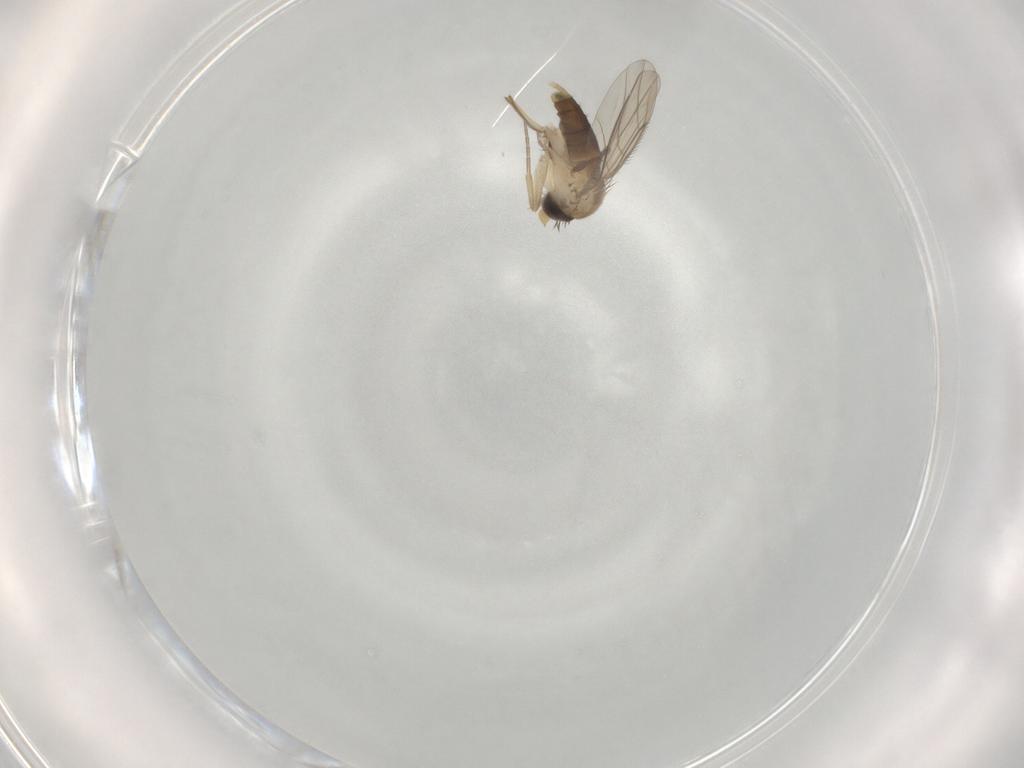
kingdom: Animalia
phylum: Arthropoda
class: Insecta
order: Diptera
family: Phoridae
